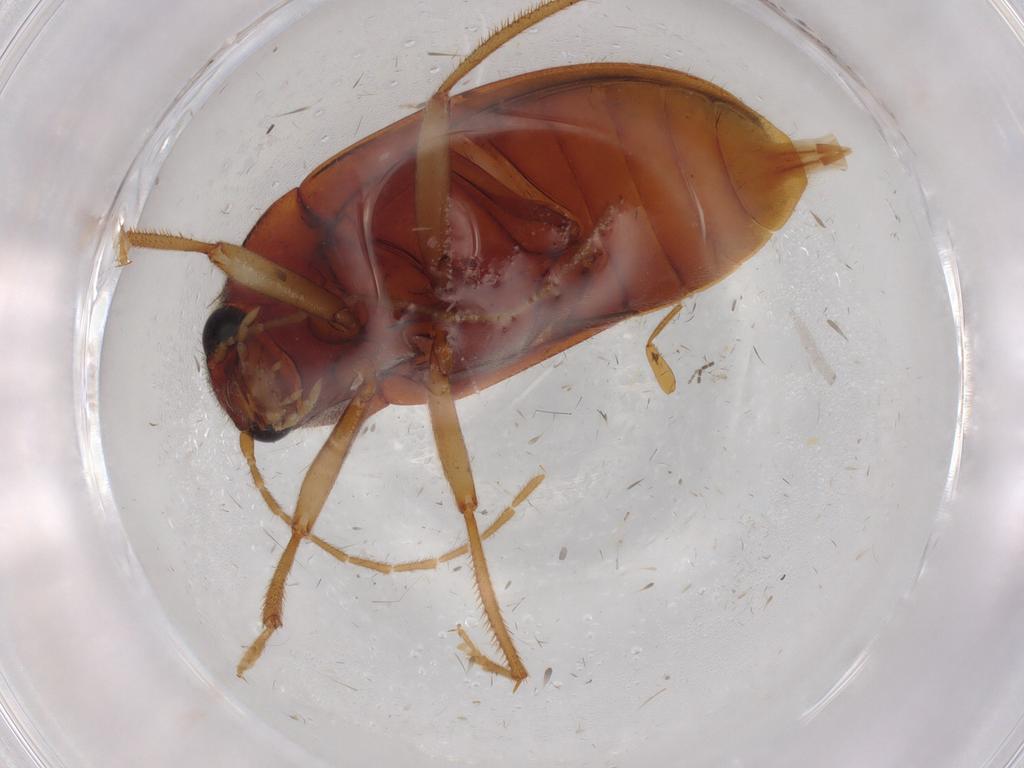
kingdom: Animalia
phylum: Arthropoda
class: Insecta
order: Coleoptera
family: Ptilodactylidae
